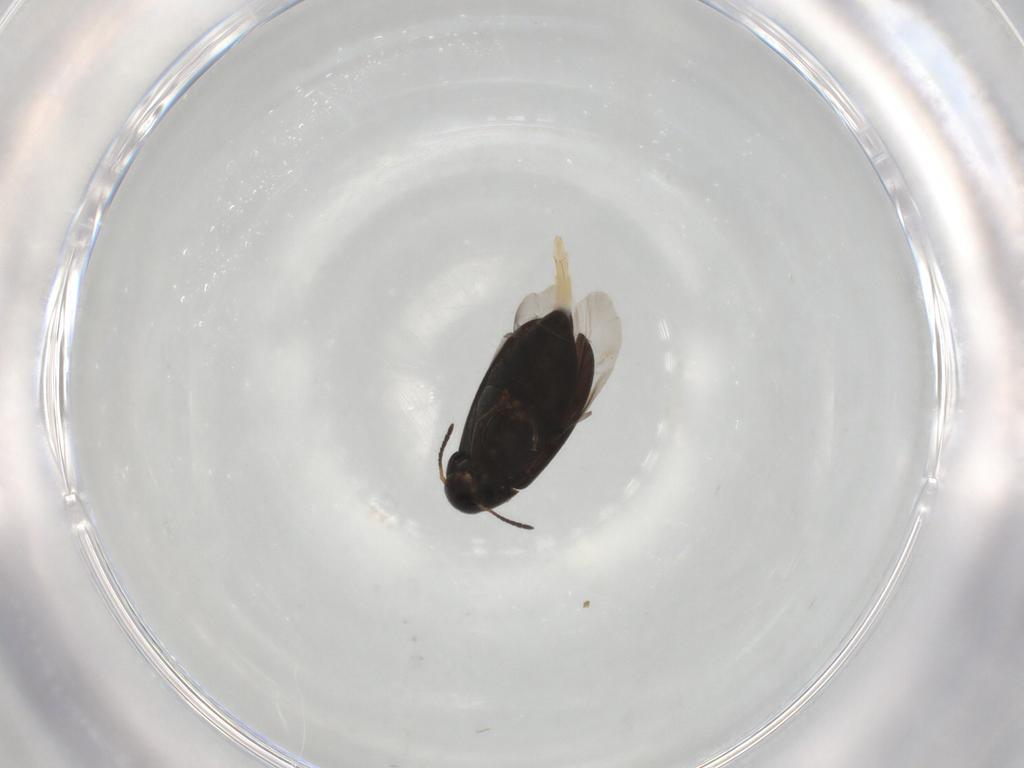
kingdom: Animalia
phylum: Arthropoda
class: Insecta
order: Coleoptera
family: Scraptiidae
